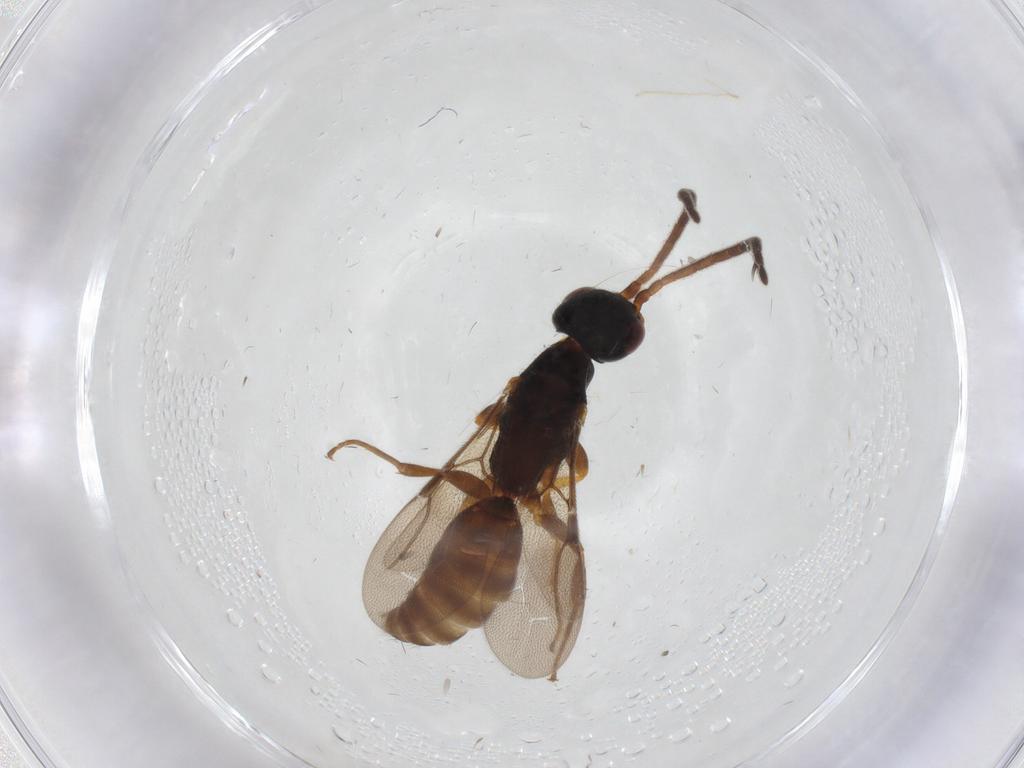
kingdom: Animalia
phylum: Arthropoda
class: Insecta
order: Hymenoptera
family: Bethylidae
